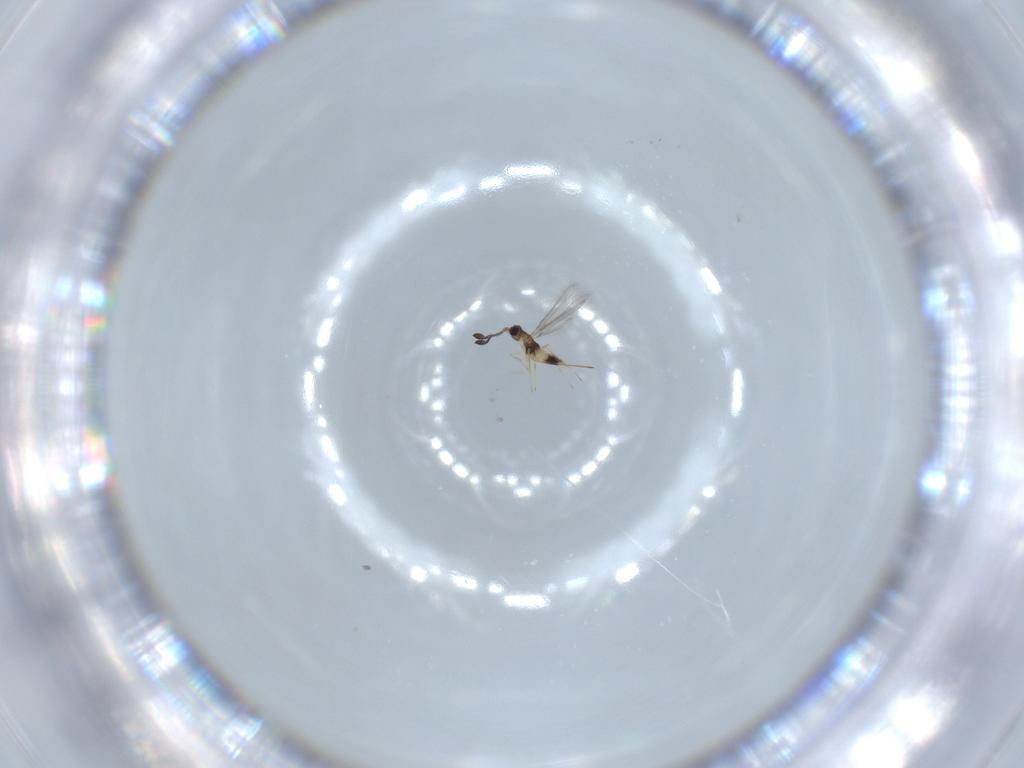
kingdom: Animalia
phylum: Arthropoda
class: Insecta
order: Hymenoptera
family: Mymaridae
